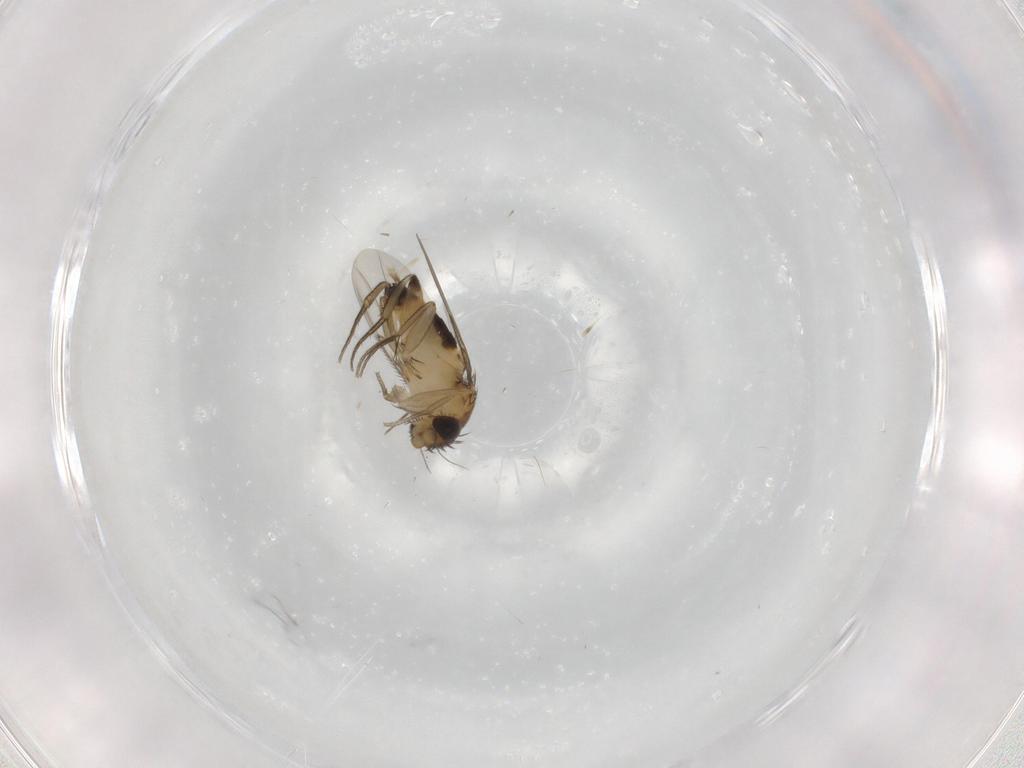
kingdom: Animalia
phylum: Arthropoda
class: Insecta
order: Diptera
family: Phoridae
